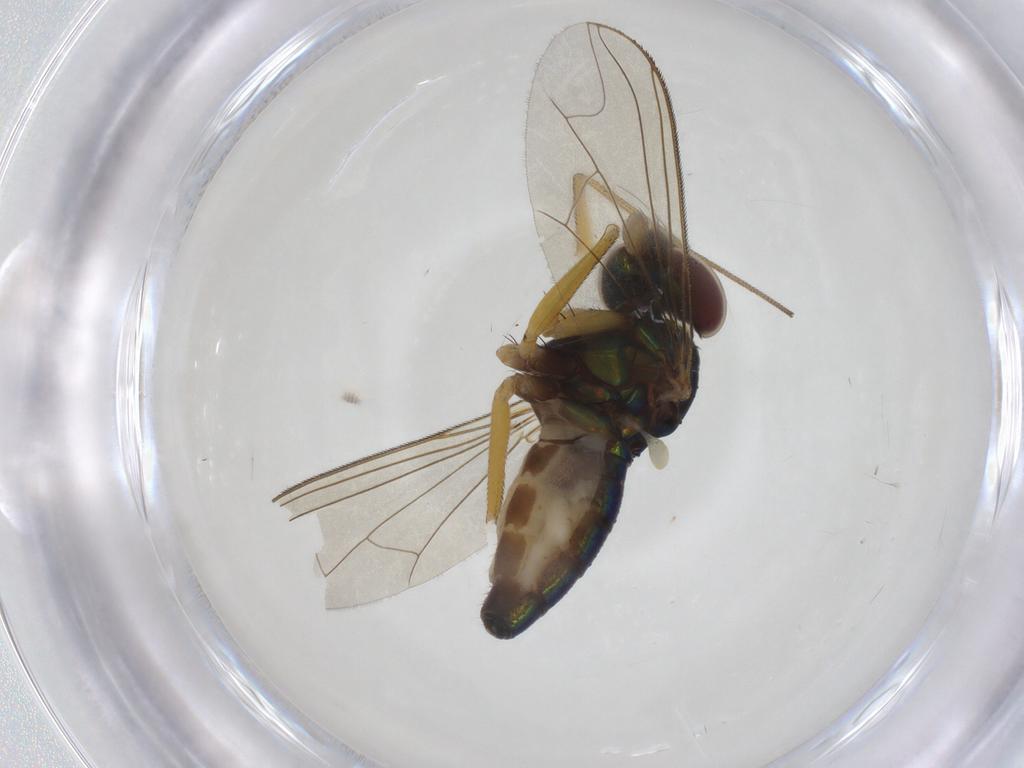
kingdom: Animalia
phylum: Arthropoda
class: Insecta
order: Diptera
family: Dolichopodidae
